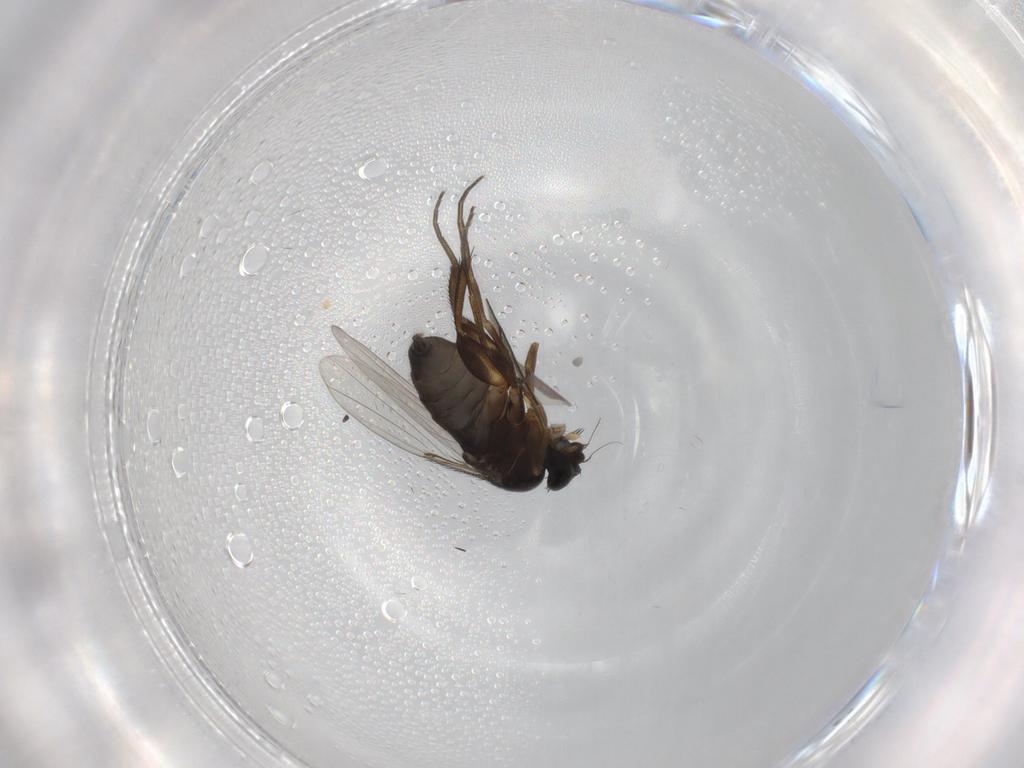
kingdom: Animalia
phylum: Arthropoda
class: Insecta
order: Diptera
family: Phoridae
